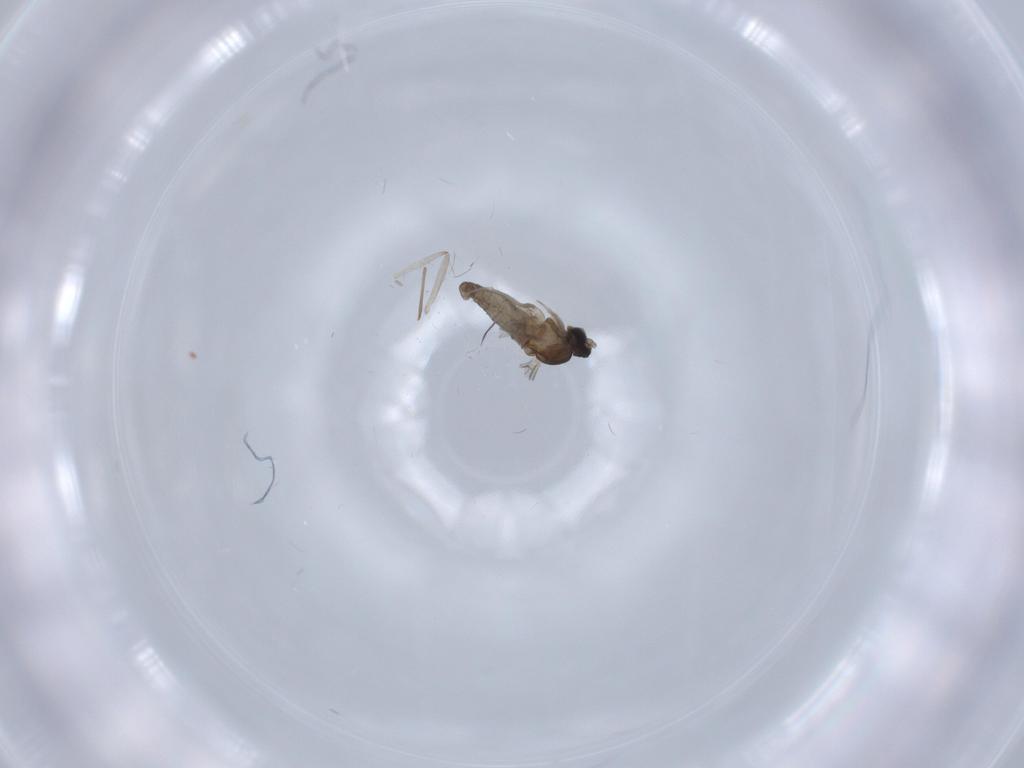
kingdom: Animalia
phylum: Arthropoda
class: Insecta
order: Diptera
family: Cecidomyiidae
